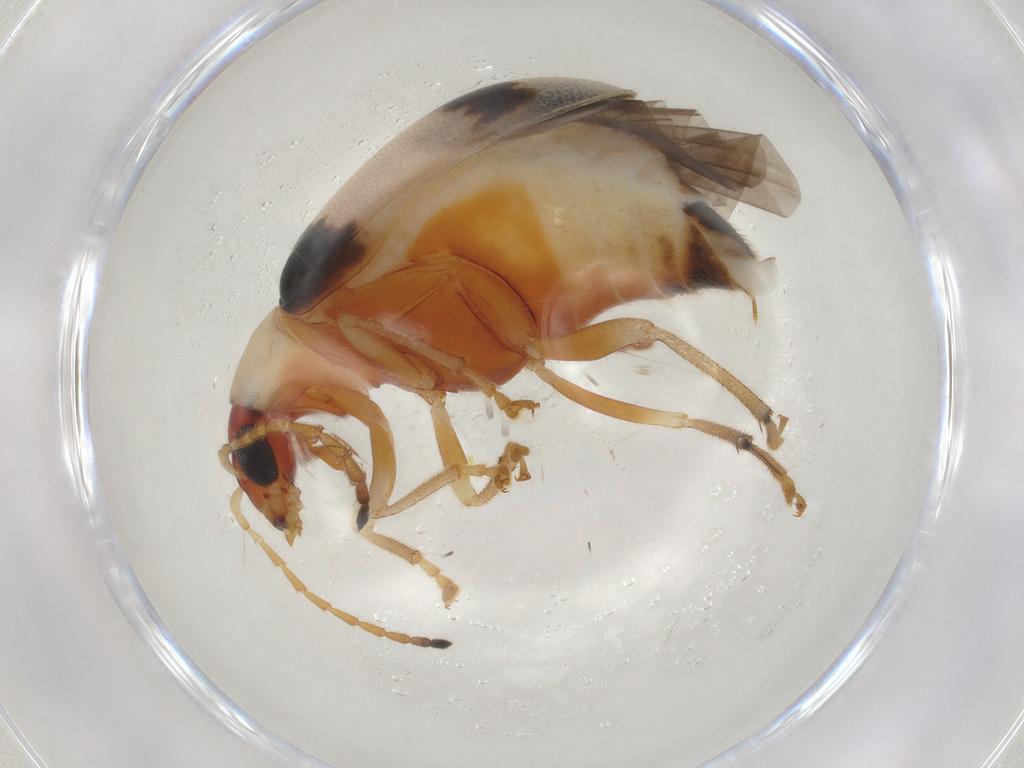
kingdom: Animalia
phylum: Arthropoda
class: Insecta
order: Coleoptera
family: Chrysomelidae
